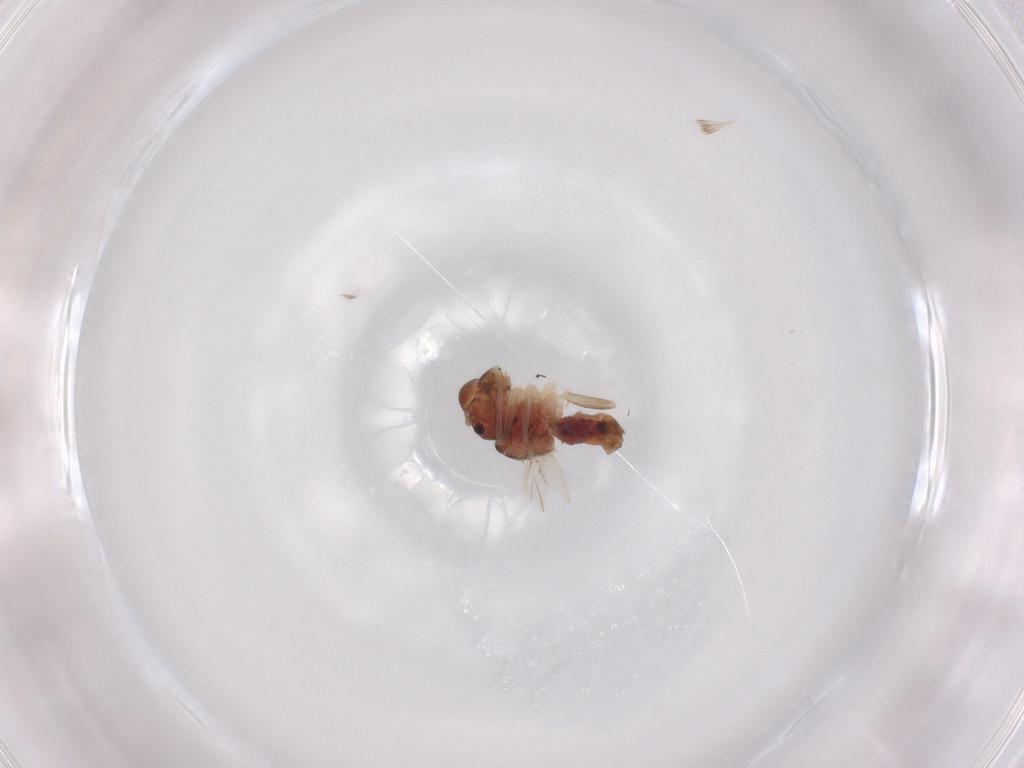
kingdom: Animalia
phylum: Arthropoda
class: Insecta
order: Psocodea
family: Caeciliusidae
